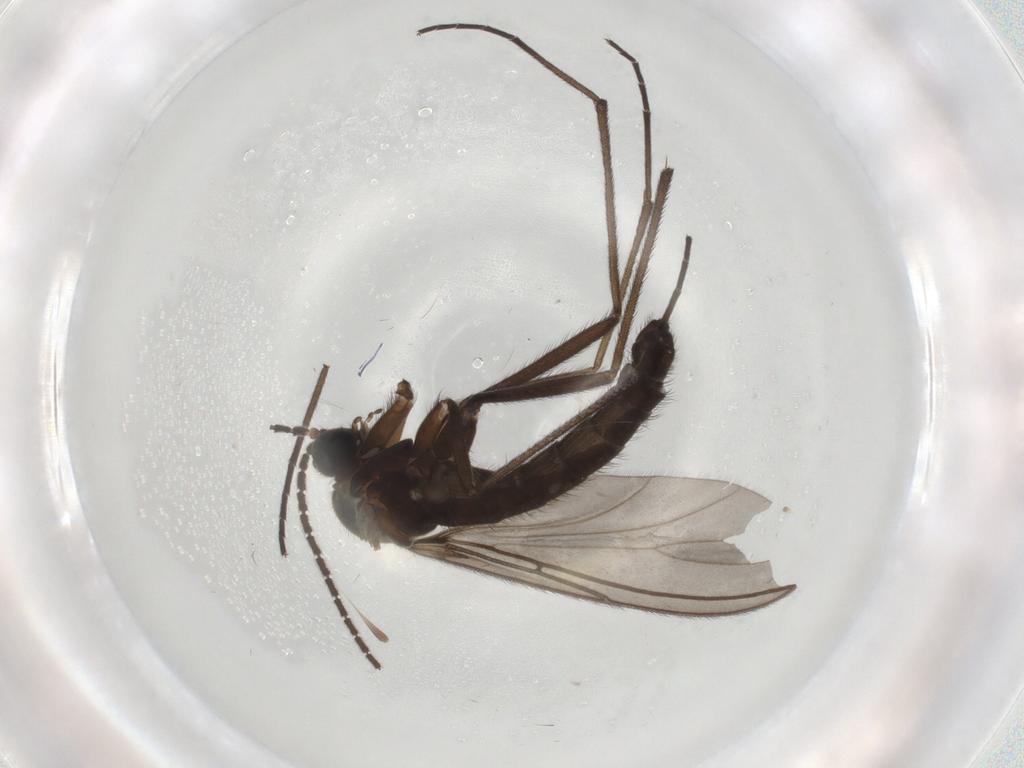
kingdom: Animalia
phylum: Arthropoda
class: Insecta
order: Diptera
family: Sciaridae
